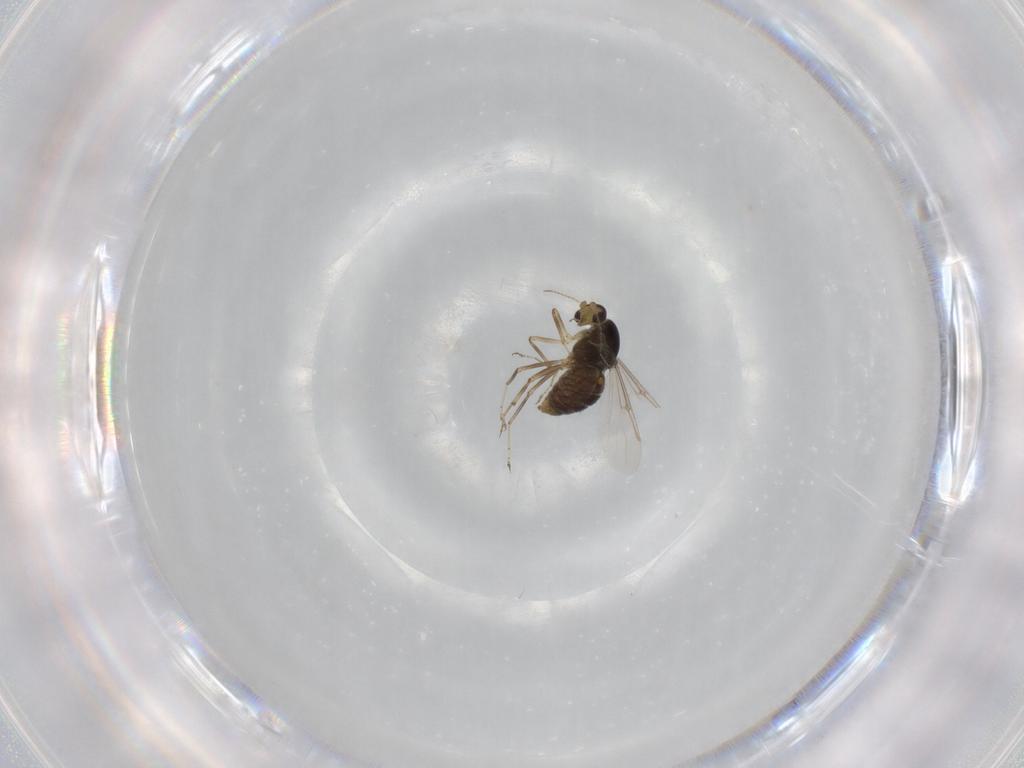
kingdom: Animalia
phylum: Arthropoda
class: Insecta
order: Diptera
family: Ceratopogonidae
